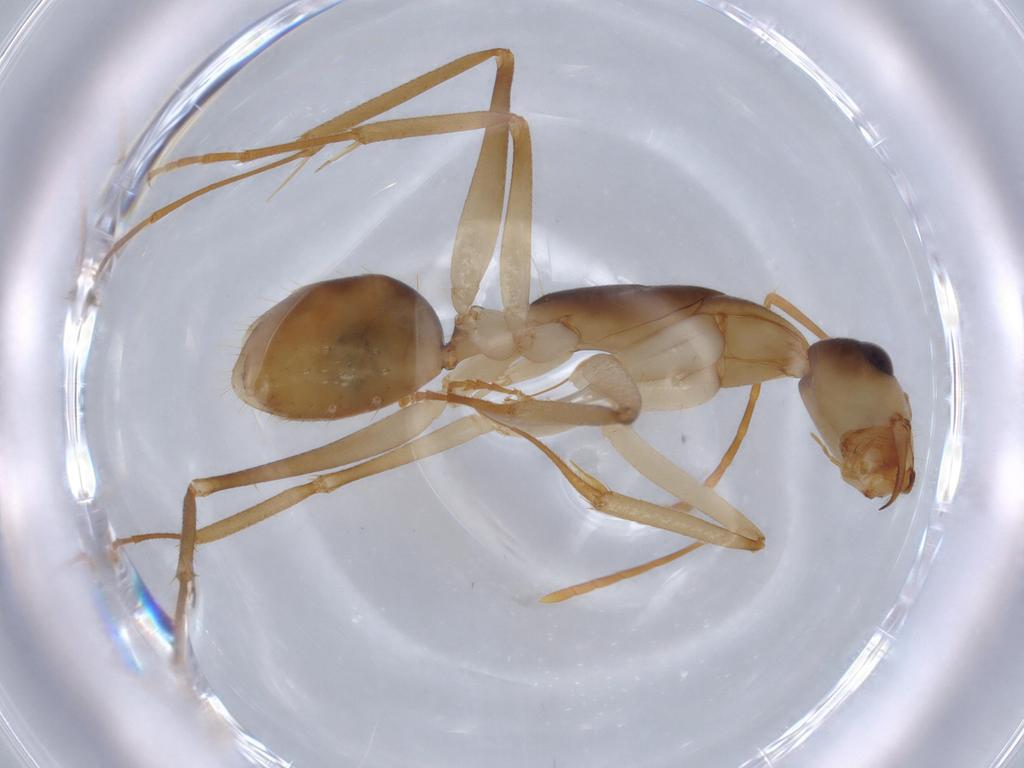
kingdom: Animalia
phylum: Arthropoda
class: Insecta
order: Hymenoptera
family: Formicidae
